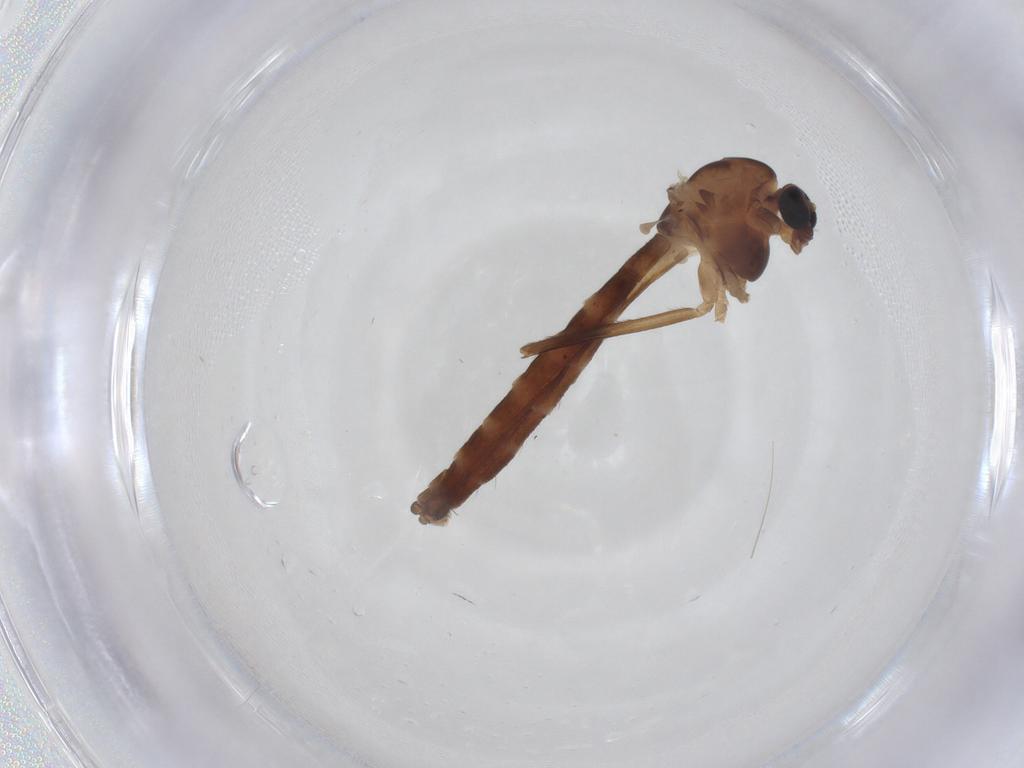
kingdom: Animalia
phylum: Arthropoda
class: Insecta
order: Diptera
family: Chironomidae
